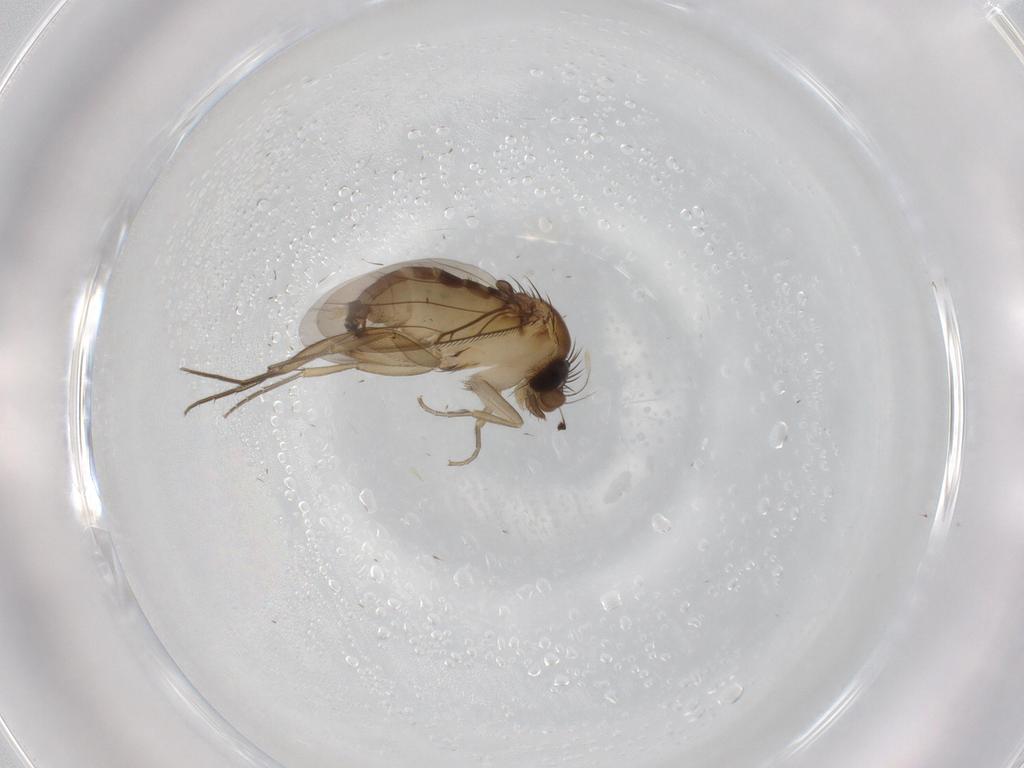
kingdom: Animalia
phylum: Arthropoda
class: Insecta
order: Diptera
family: Phoridae
